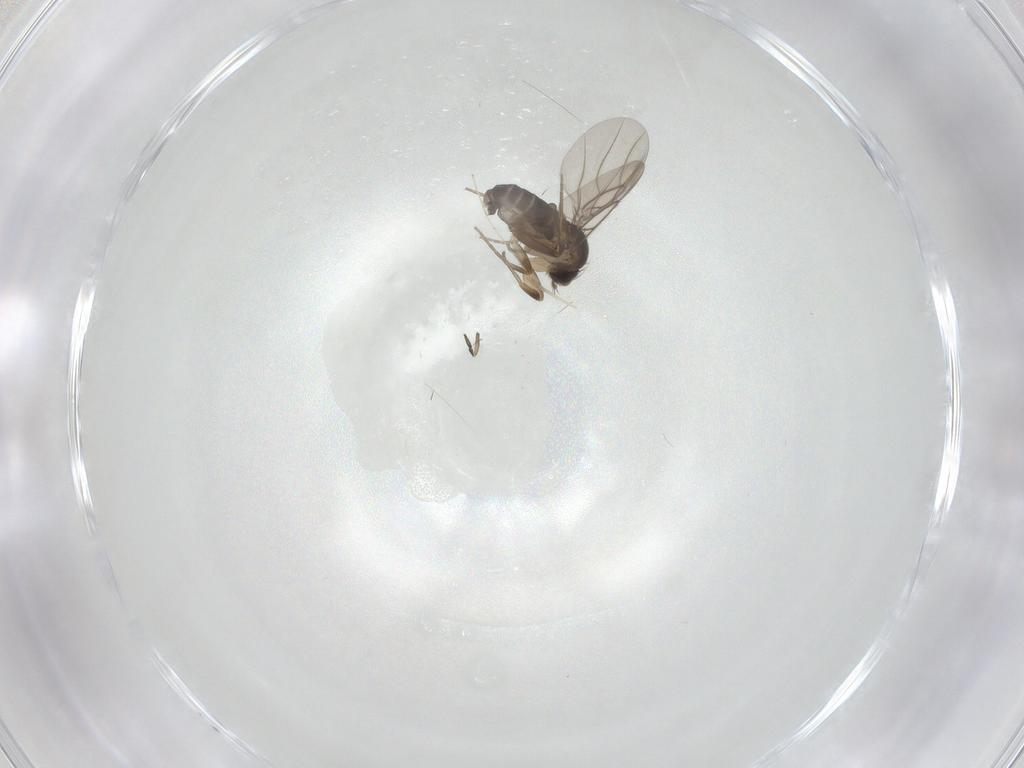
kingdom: Animalia
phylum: Arthropoda
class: Insecta
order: Diptera
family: Phoridae
